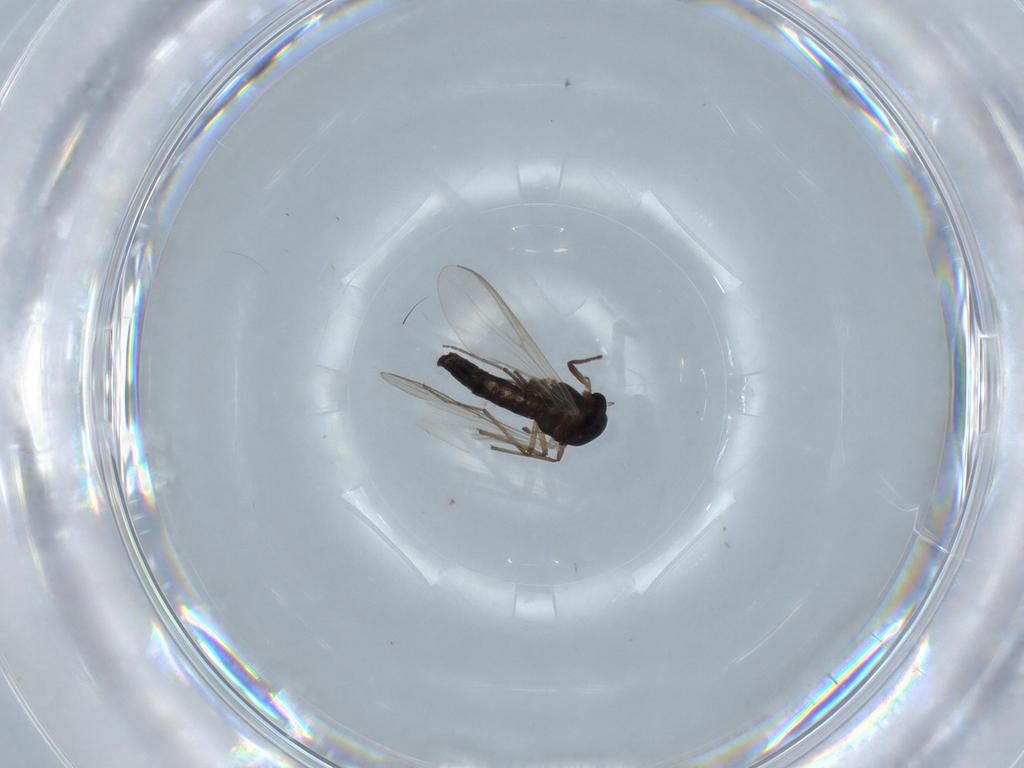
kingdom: Animalia
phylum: Arthropoda
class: Insecta
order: Diptera
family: Chironomidae
